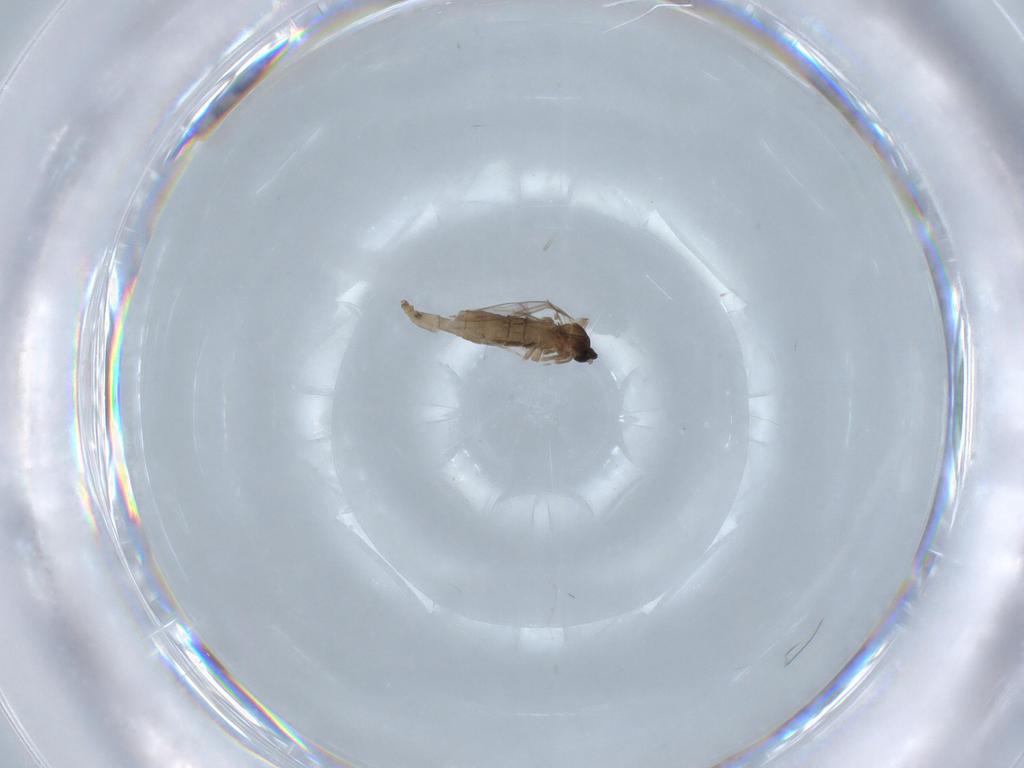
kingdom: Animalia
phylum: Arthropoda
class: Insecta
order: Diptera
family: Cecidomyiidae
